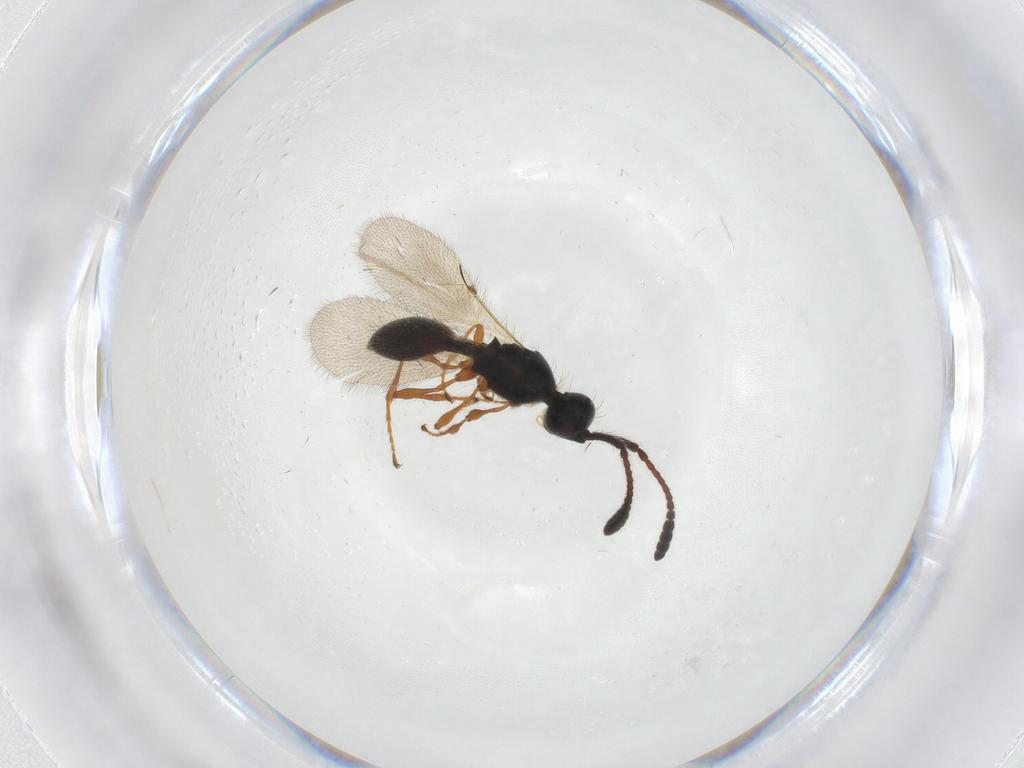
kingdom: Animalia
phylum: Arthropoda
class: Insecta
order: Hymenoptera
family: Diapriidae
